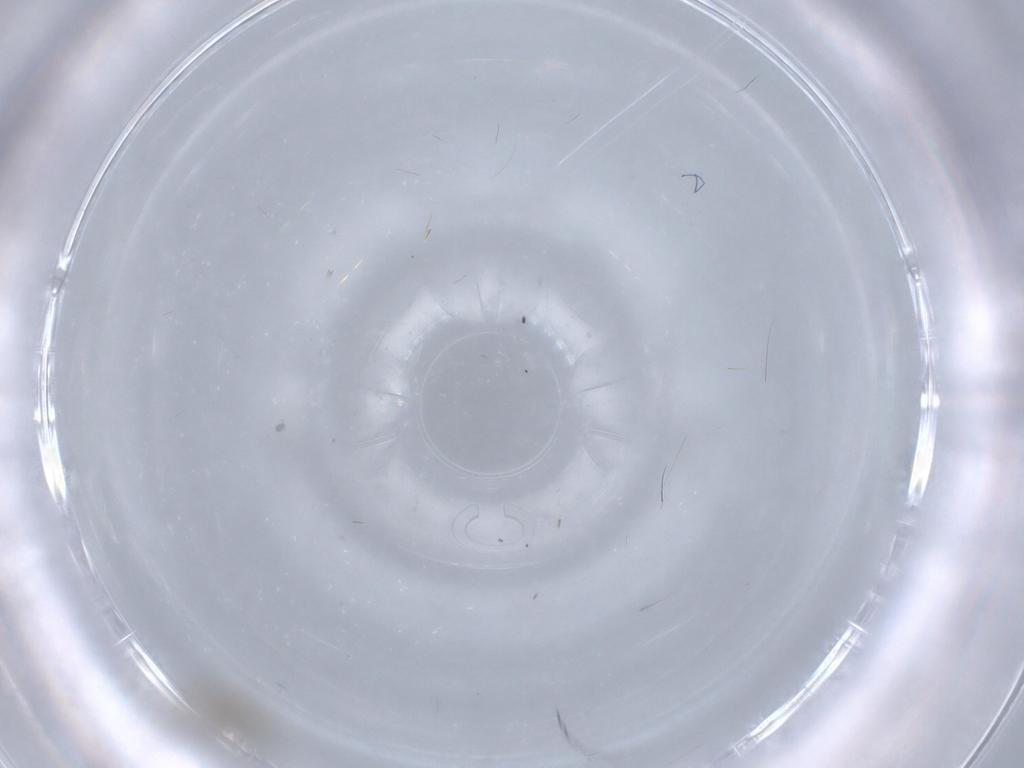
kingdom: Animalia
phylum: Arthropoda
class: Insecta
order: Diptera
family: Cecidomyiidae
